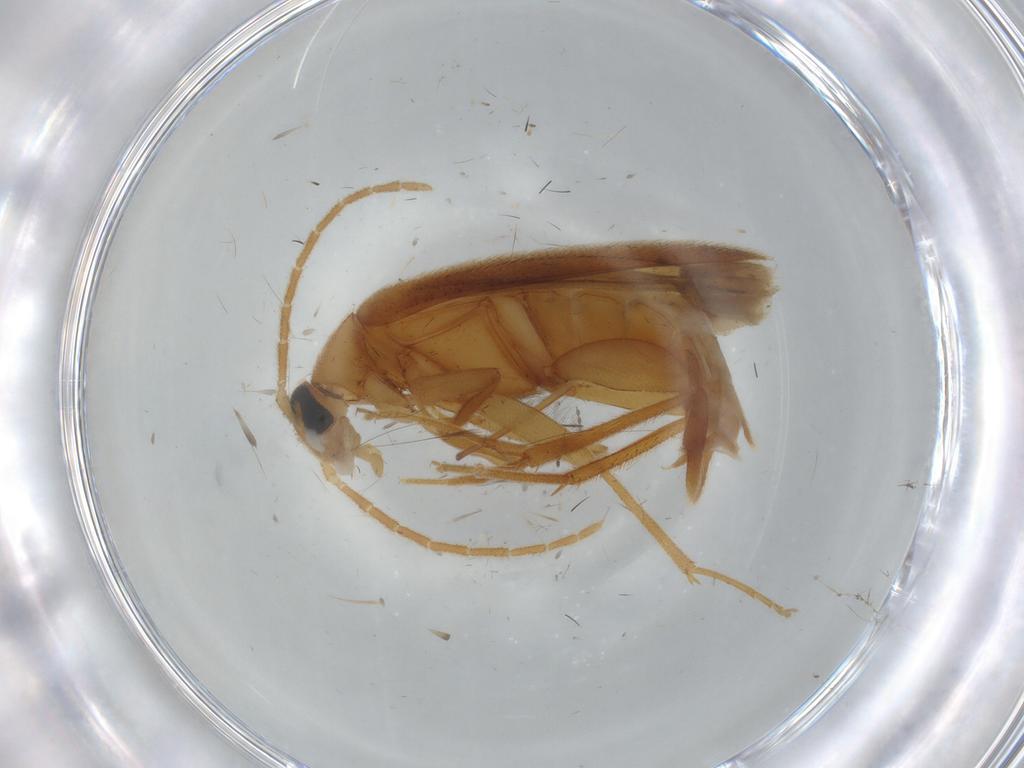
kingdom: Animalia
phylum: Arthropoda
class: Insecta
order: Coleoptera
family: Scraptiidae
